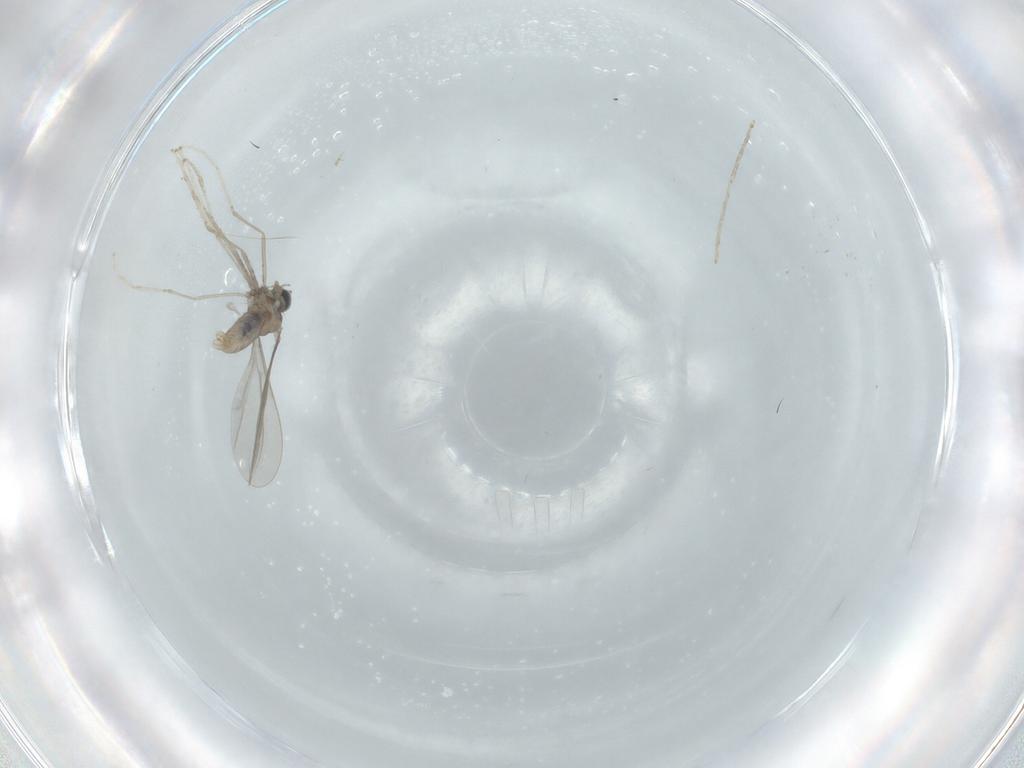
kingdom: Animalia
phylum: Arthropoda
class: Insecta
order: Diptera
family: Cecidomyiidae
